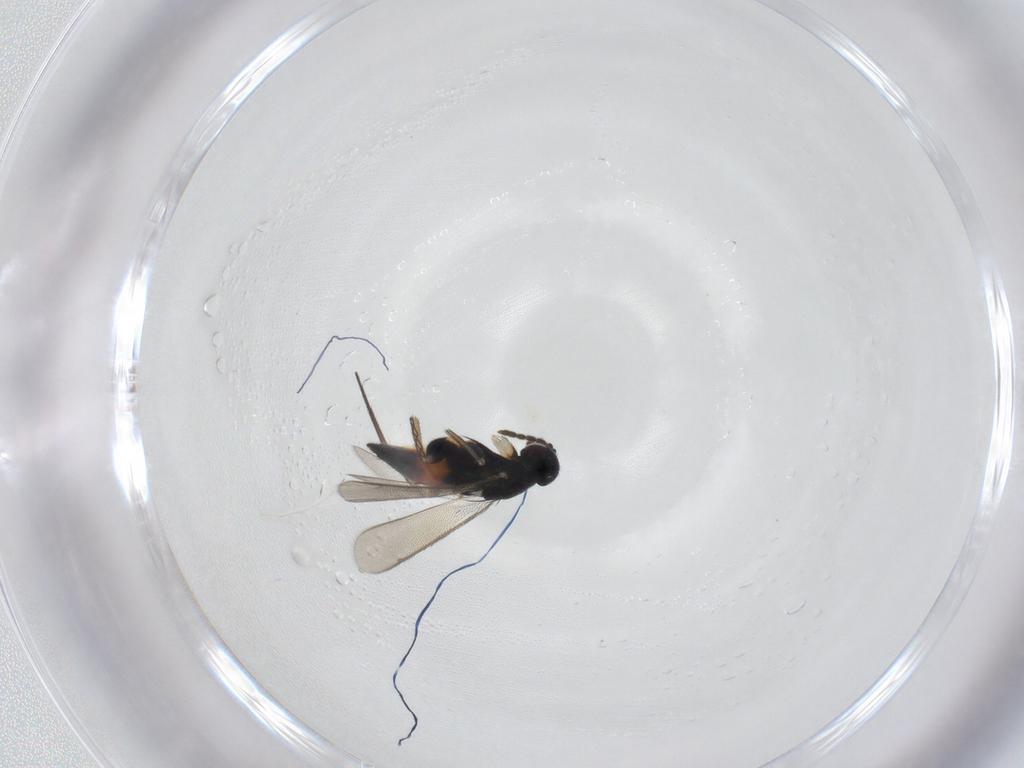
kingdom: Animalia
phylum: Arthropoda
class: Insecta
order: Hymenoptera
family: Eulophidae
